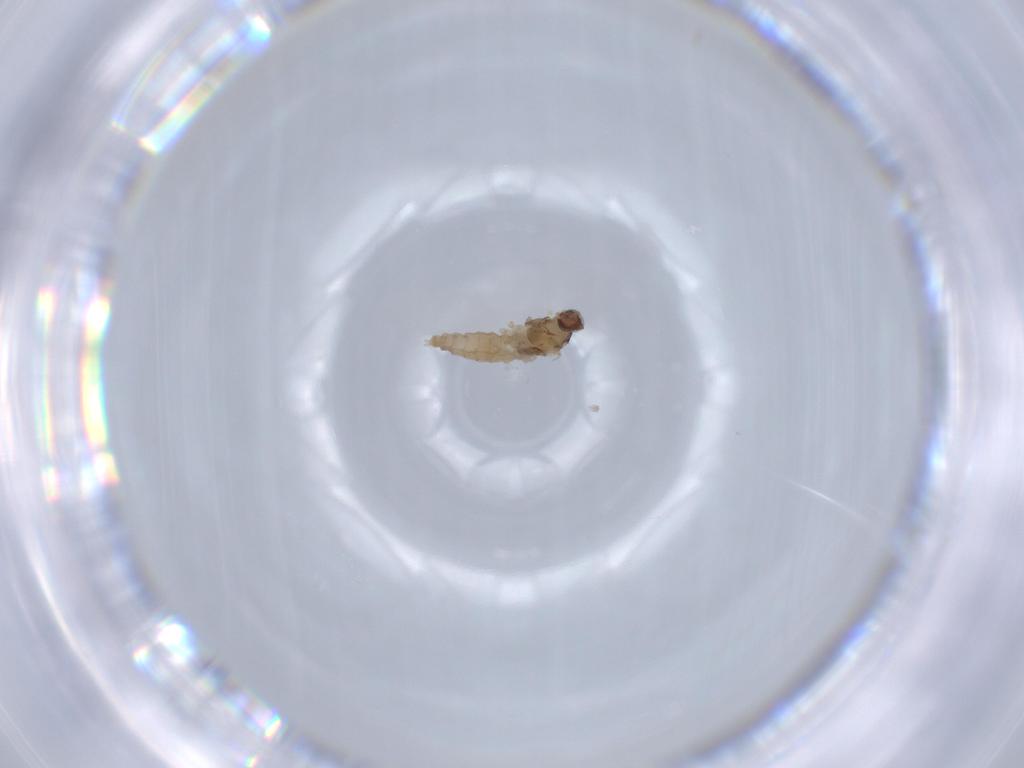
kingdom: Animalia
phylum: Arthropoda
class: Insecta
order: Diptera
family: Cecidomyiidae
